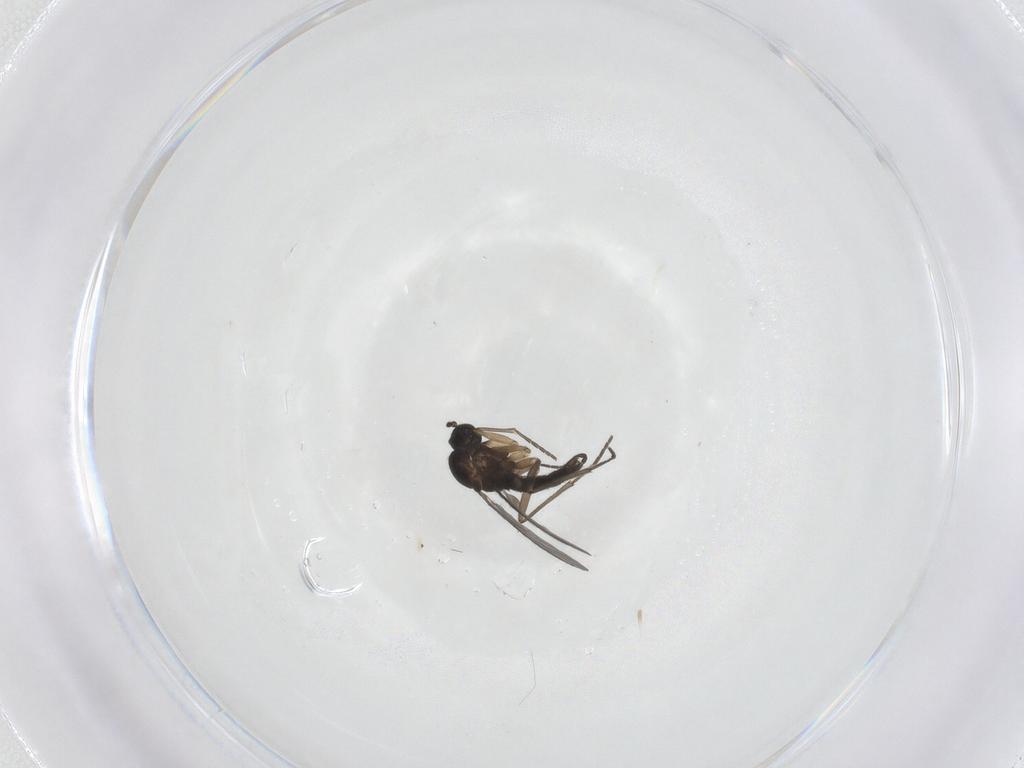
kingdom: Animalia
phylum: Arthropoda
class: Insecta
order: Diptera
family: Sciaridae
